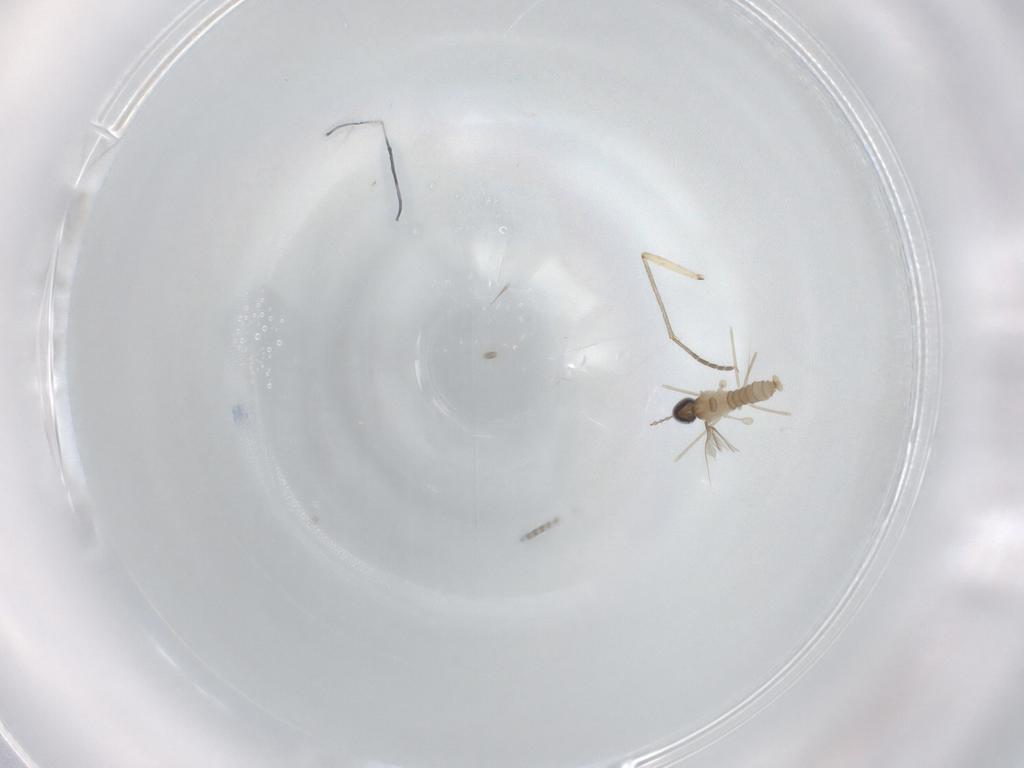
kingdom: Animalia
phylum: Arthropoda
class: Insecta
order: Diptera
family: Cecidomyiidae
